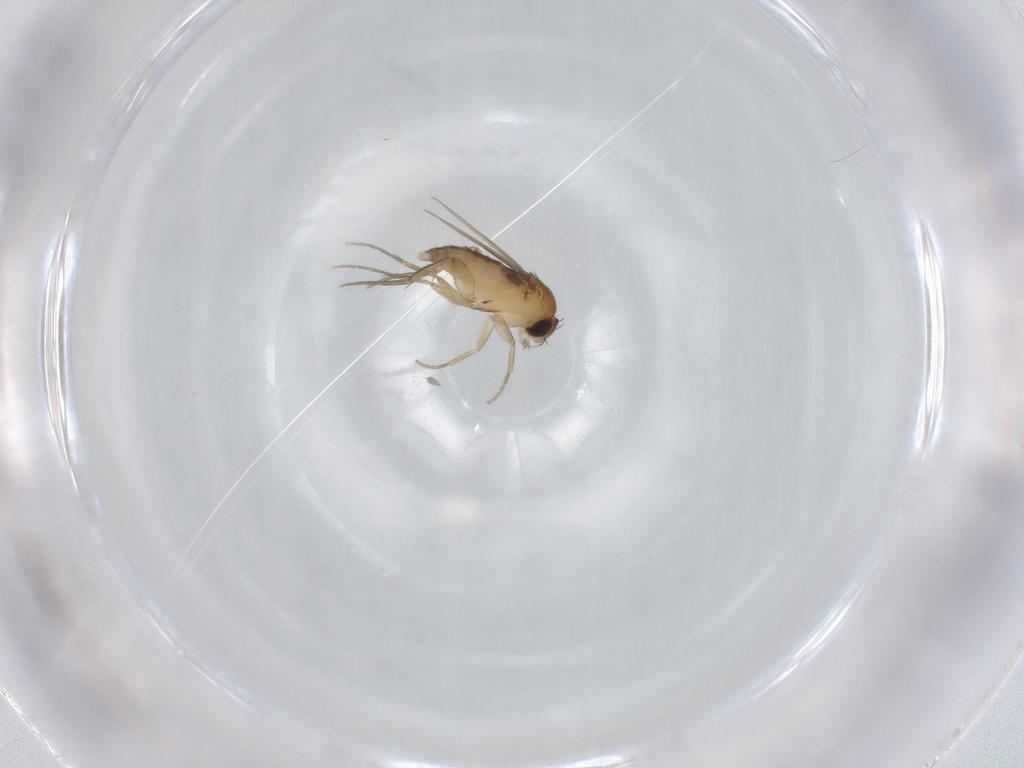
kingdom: Animalia
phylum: Arthropoda
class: Insecta
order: Diptera
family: Phoridae
